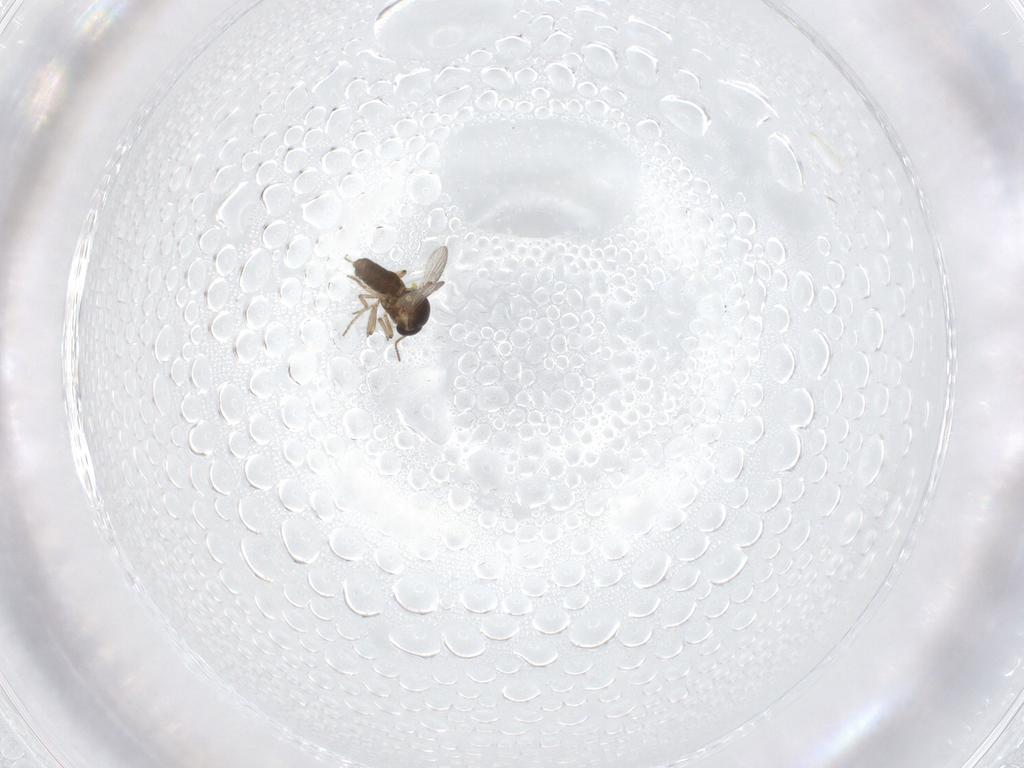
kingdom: Animalia
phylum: Arthropoda
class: Insecta
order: Diptera
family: Ceratopogonidae
